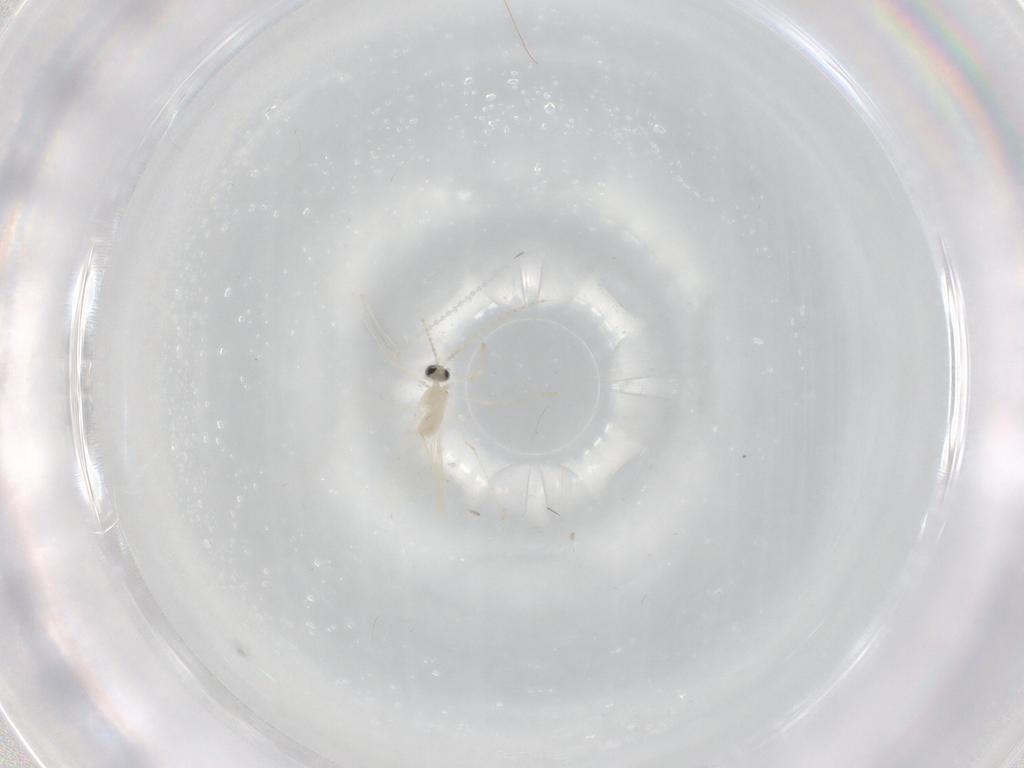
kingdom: Animalia
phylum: Arthropoda
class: Insecta
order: Diptera
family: Cecidomyiidae
